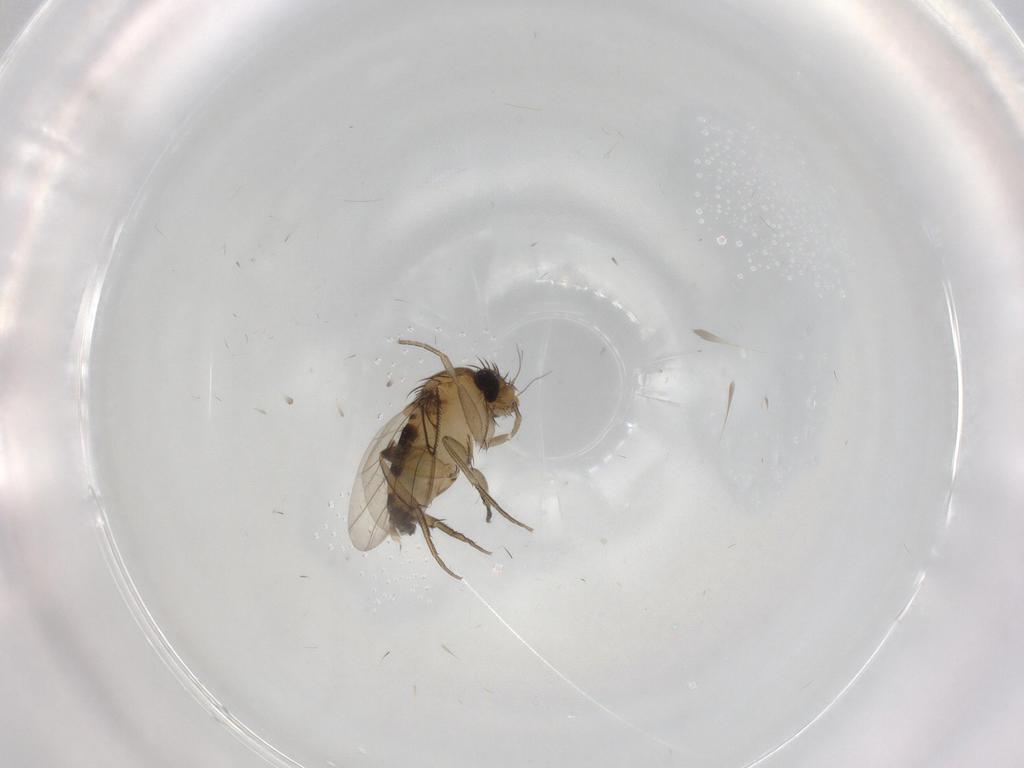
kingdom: Animalia
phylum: Arthropoda
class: Insecta
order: Diptera
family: Phoridae
